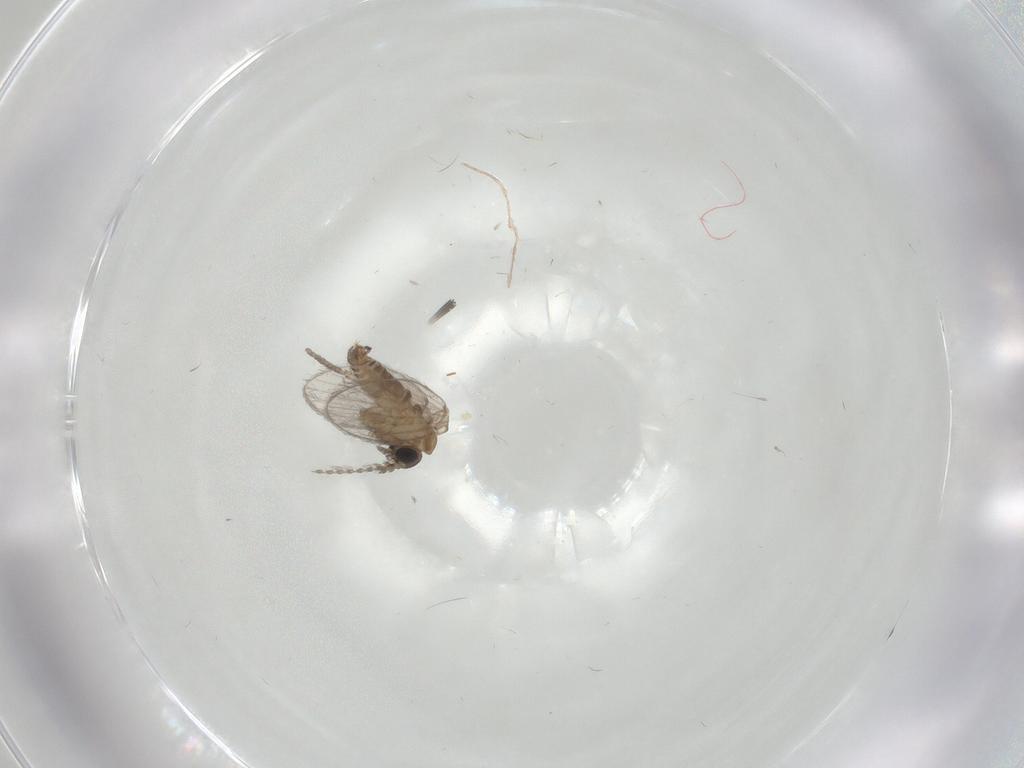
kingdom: Animalia
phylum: Arthropoda
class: Insecta
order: Diptera
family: Psychodidae
